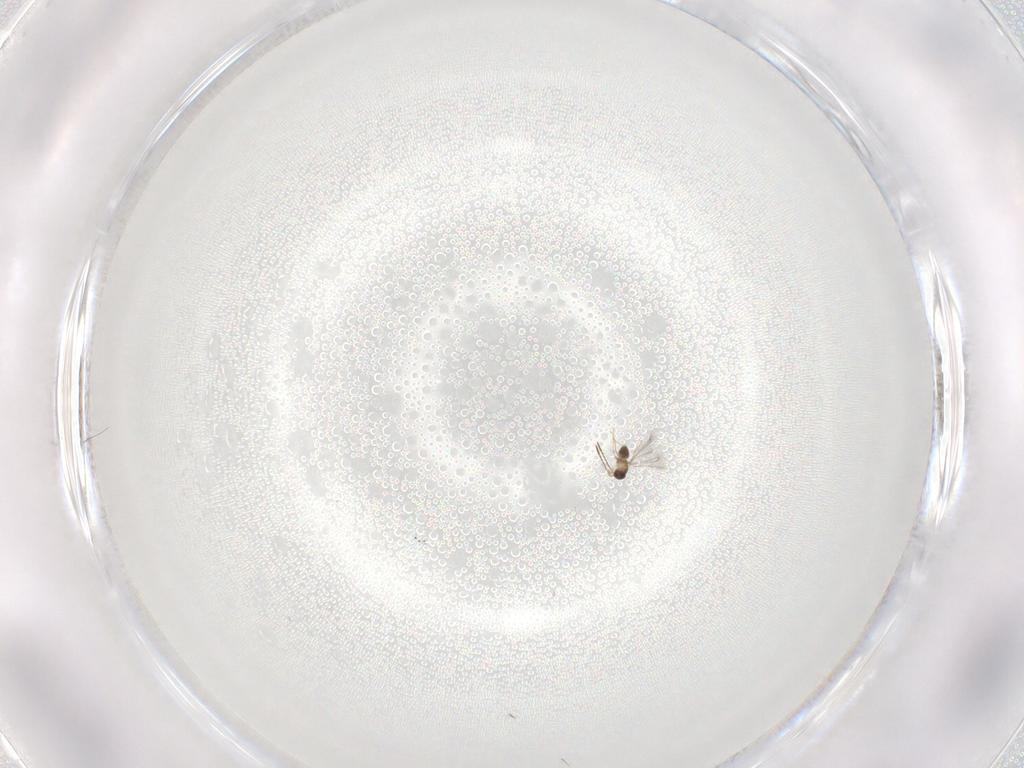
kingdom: Animalia
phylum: Arthropoda
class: Insecta
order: Hymenoptera
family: Mymaridae
